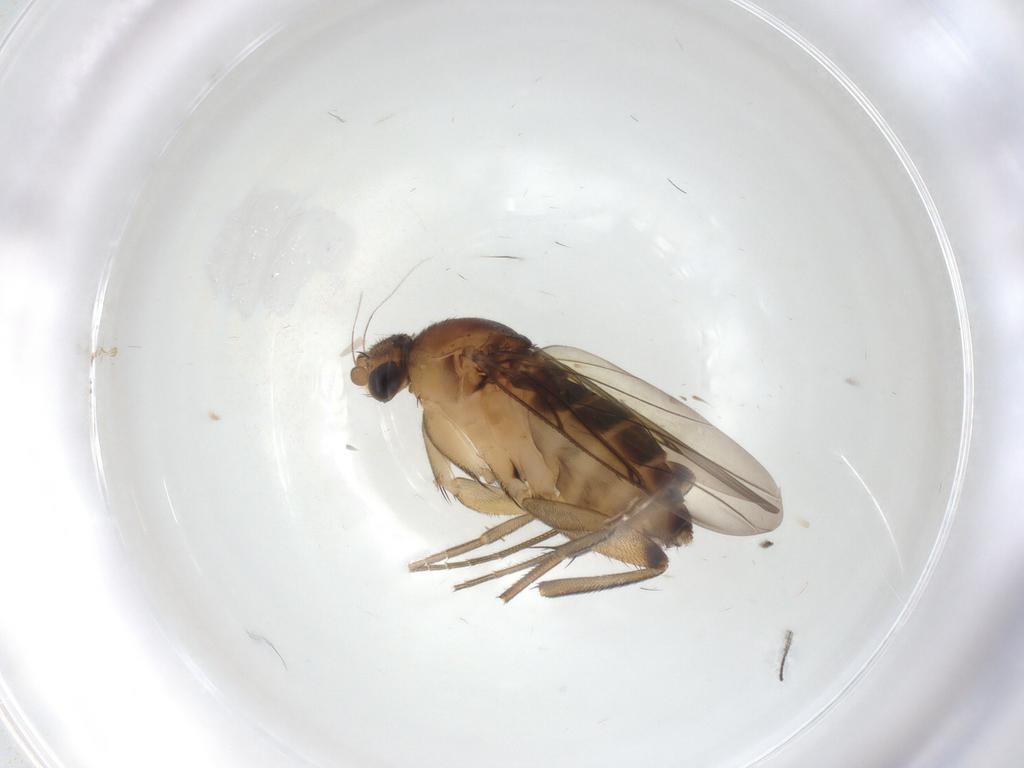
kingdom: Animalia
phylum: Arthropoda
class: Insecta
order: Diptera
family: Phoridae
